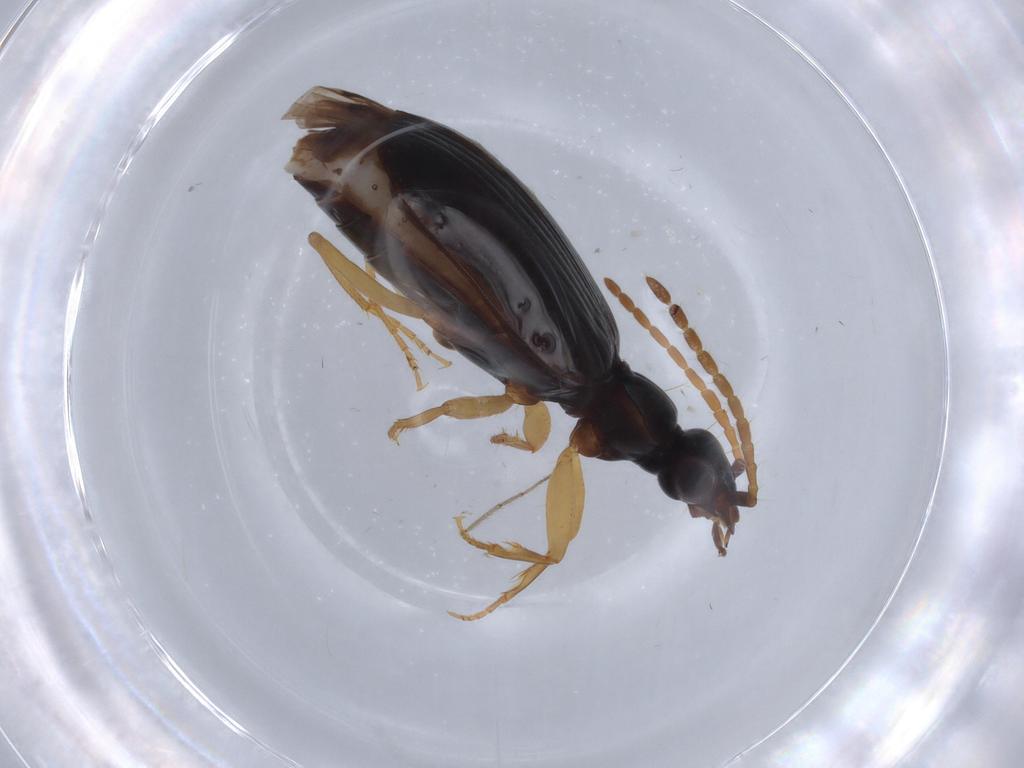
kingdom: Animalia
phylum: Arthropoda
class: Insecta
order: Coleoptera
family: Carabidae
